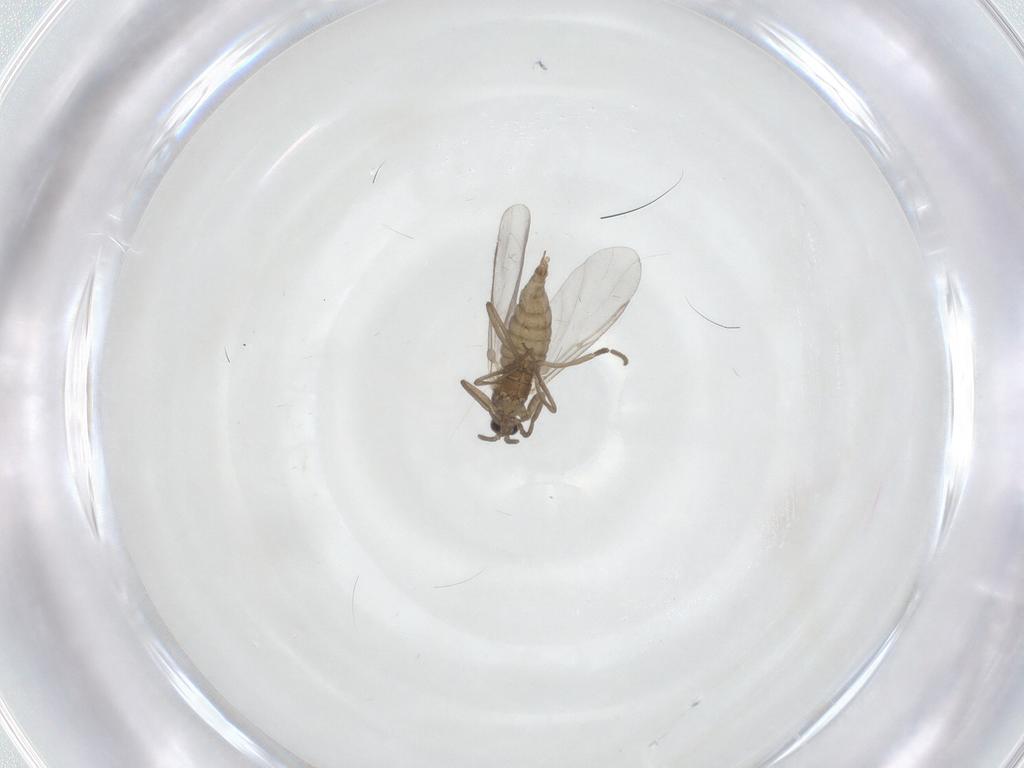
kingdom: Animalia
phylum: Arthropoda
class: Insecta
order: Diptera
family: Cecidomyiidae
